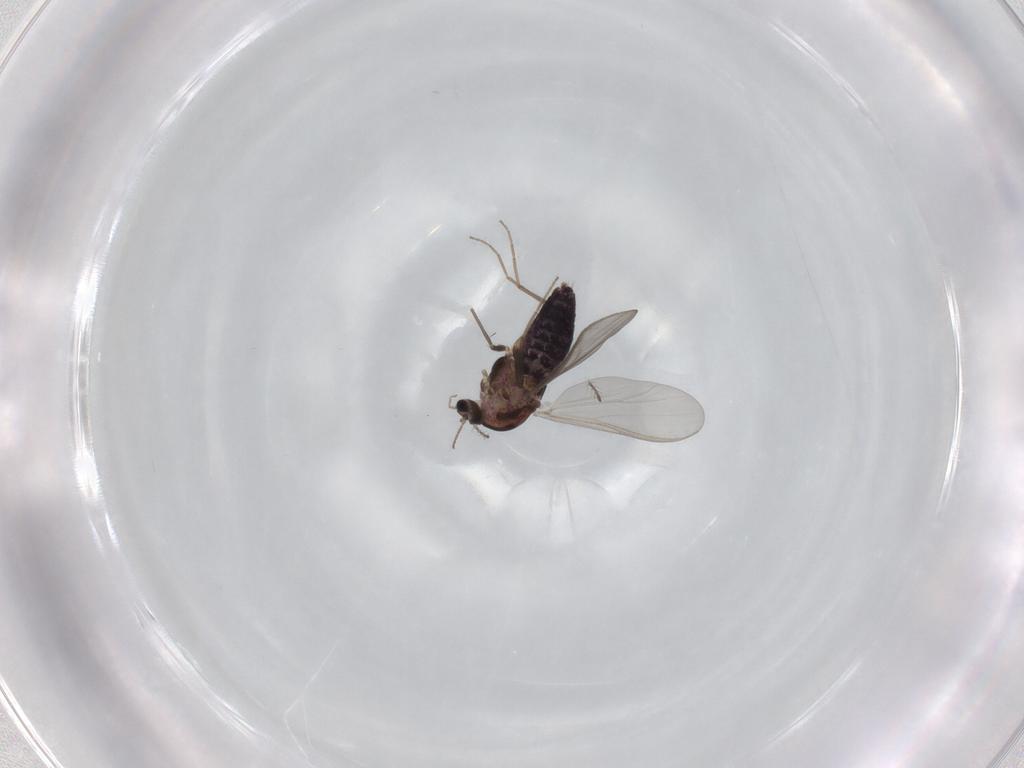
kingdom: Animalia
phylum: Arthropoda
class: Insecta
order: Diptera
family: Chironomidae
